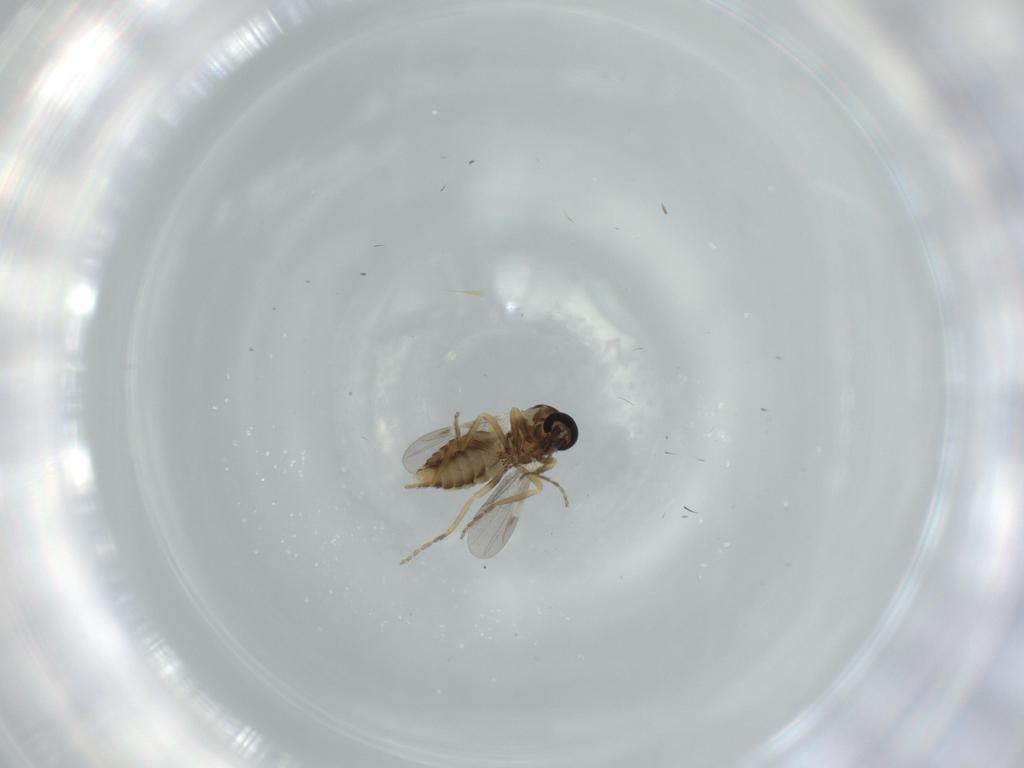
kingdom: Animalia
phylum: Arthropoda
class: Insecta
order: Diptera
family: Ceratopogonidae
